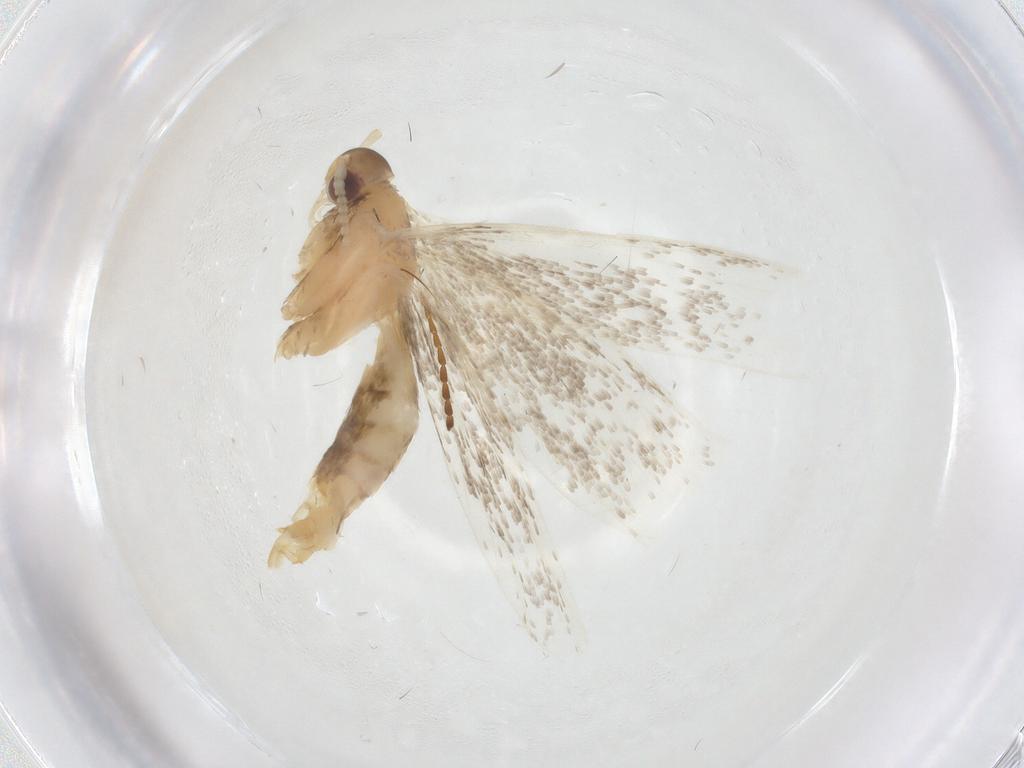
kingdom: Animalia
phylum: Arthropoda
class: Insecta
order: Lepidoptera
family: Lecithoceridae
